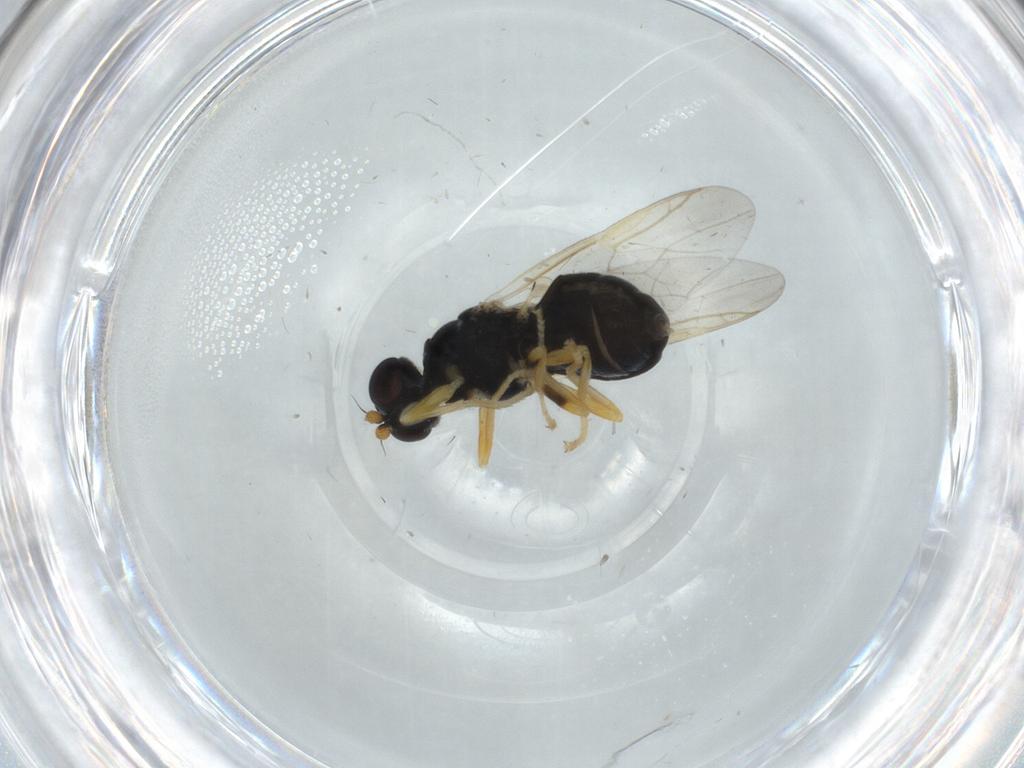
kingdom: Animalia
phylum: Arthropoda
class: Insecta
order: Diptera
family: Stratiomyidae
